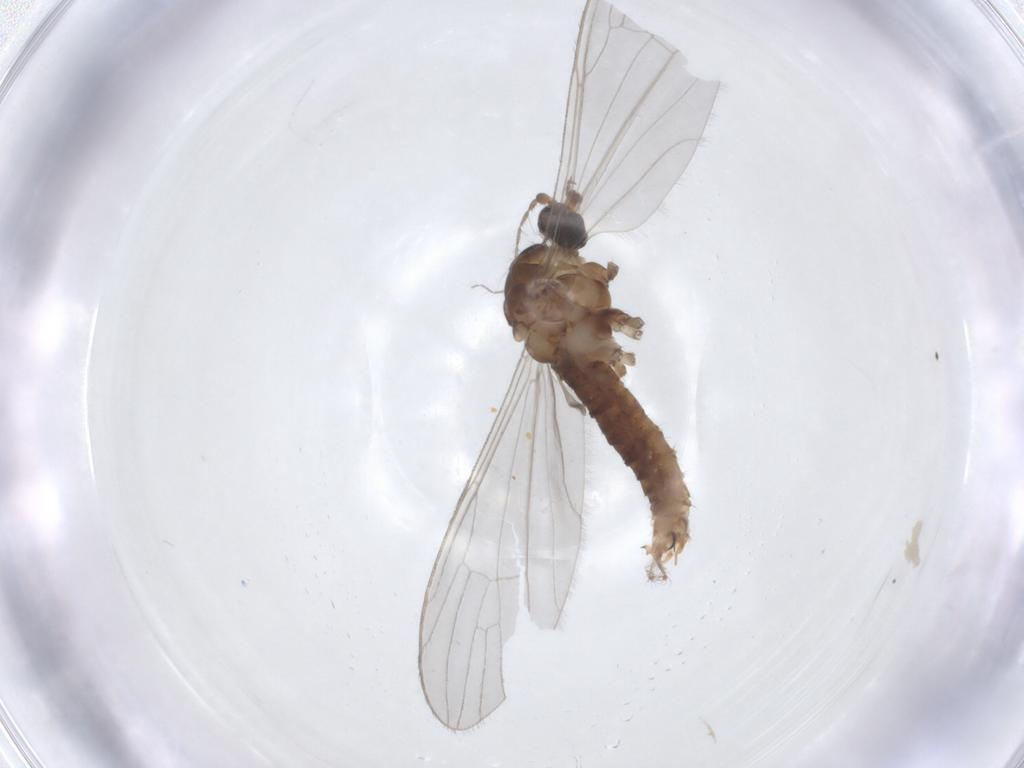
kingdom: Animalia
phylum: Arthropoda
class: Insecta
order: Diptera
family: Limoniidae
